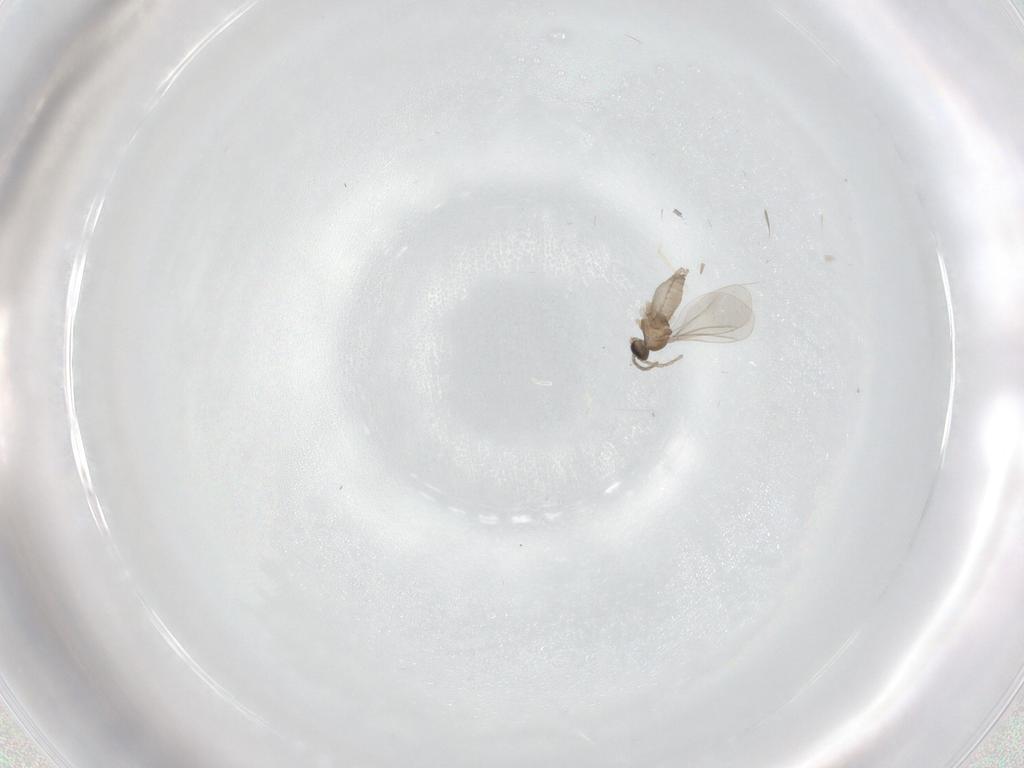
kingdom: Animalia
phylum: Arthropoda
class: Insecta
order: Diptera
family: Cecidomyiidae
